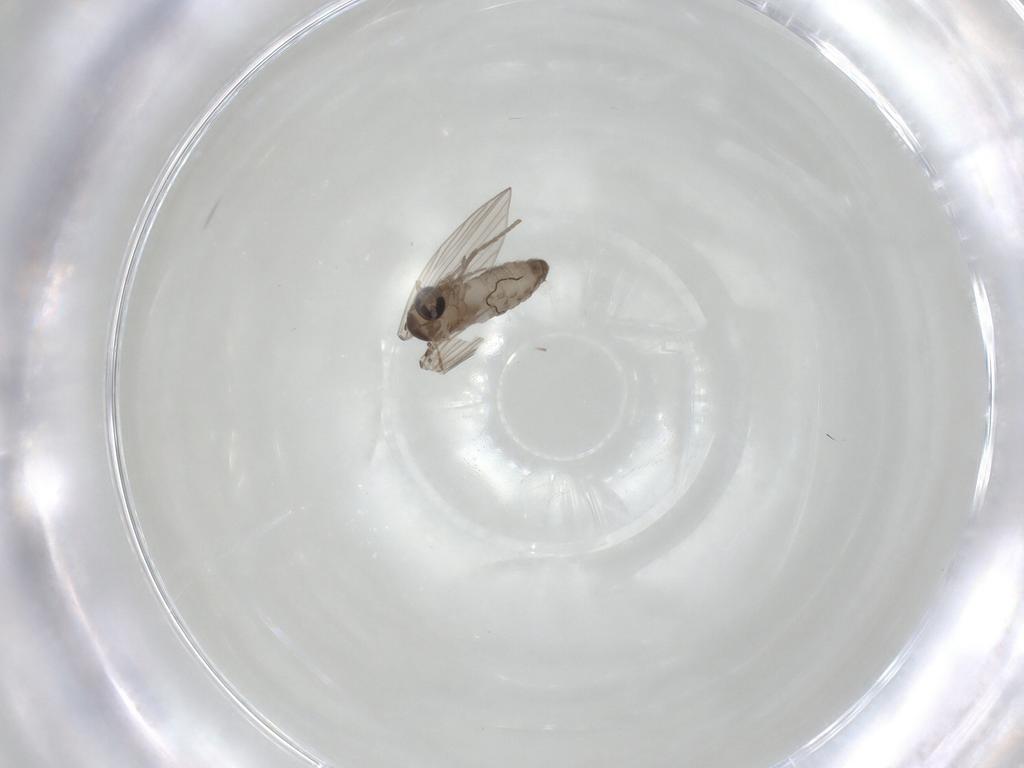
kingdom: Animalia
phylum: Arthropoda
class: Insecta
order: Diptera
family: Psychodidae
